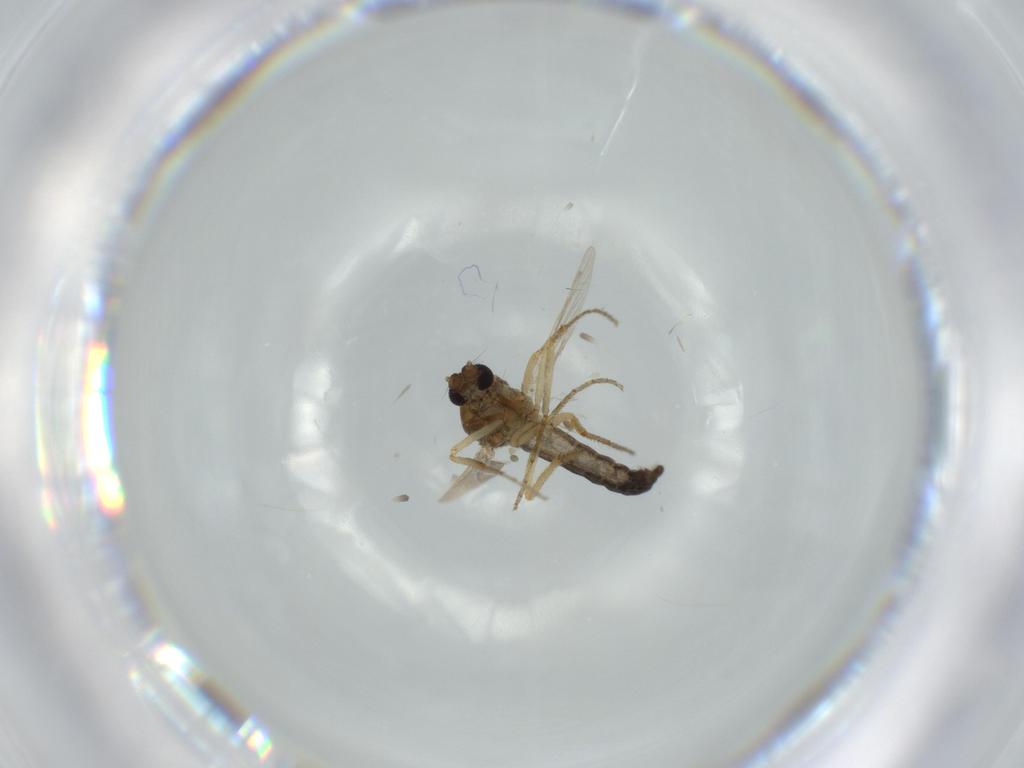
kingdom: Animalia
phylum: Arthropoda
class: Insecta
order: Diptera
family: Ceratopogonidae
